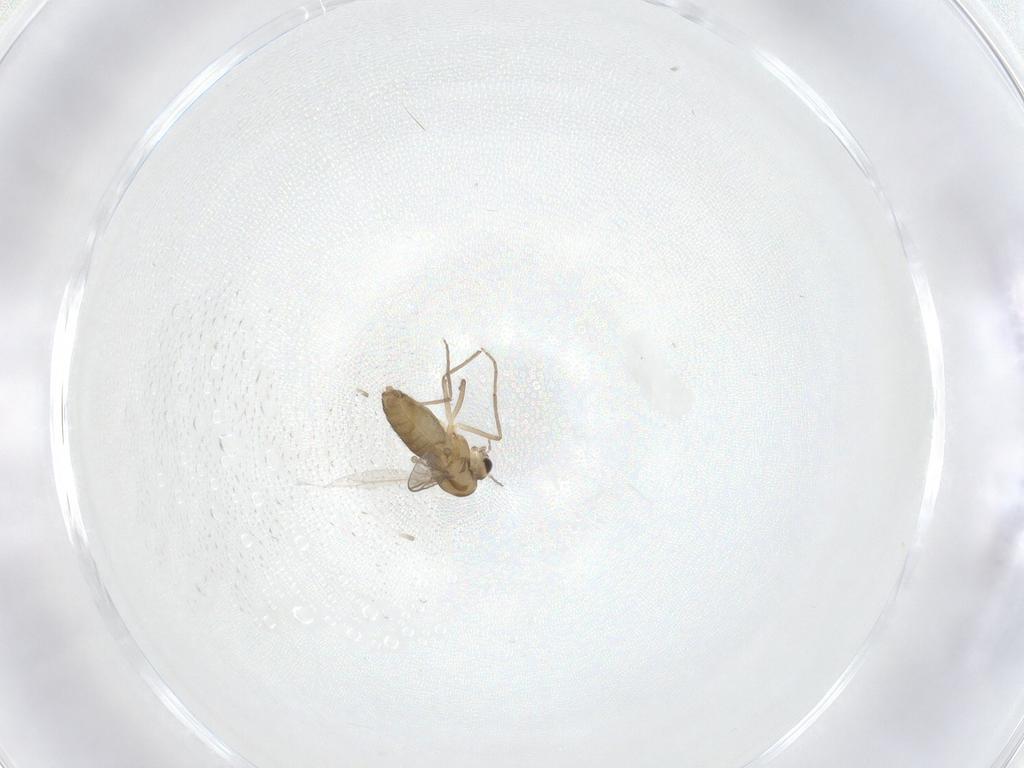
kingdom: Animalia
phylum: Arthropoda
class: Insecta
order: Diptera
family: Chironomidae
